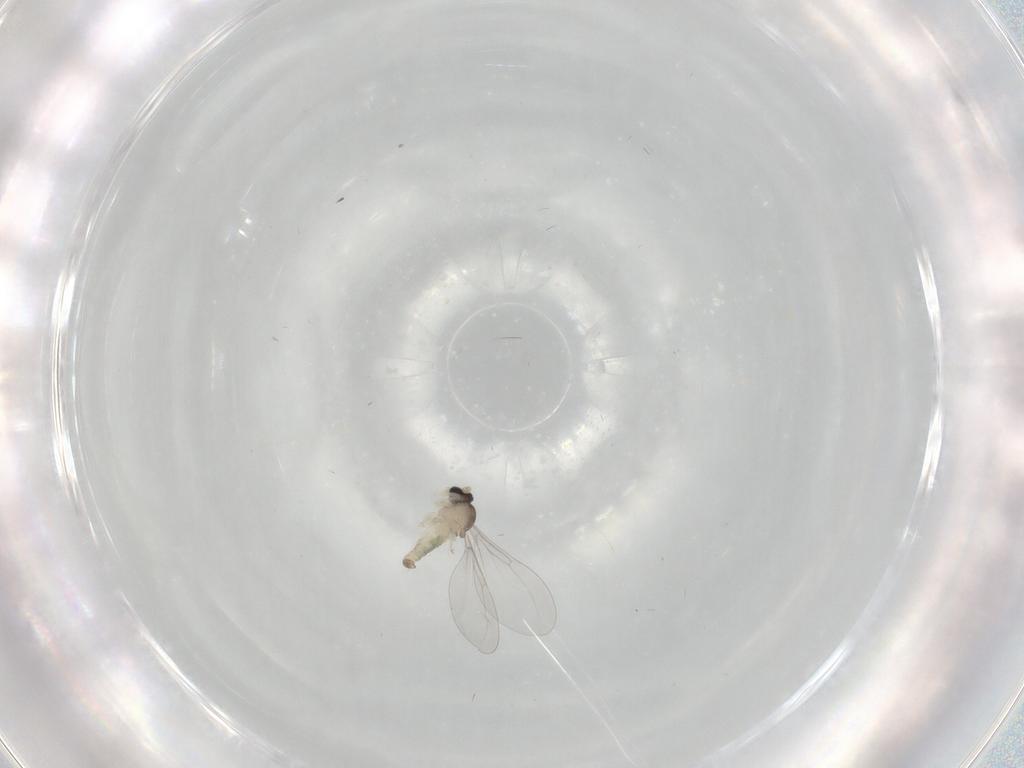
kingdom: Animalia
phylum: Arthropoda
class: Insecta
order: Diptera
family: Cecidomyiidae
